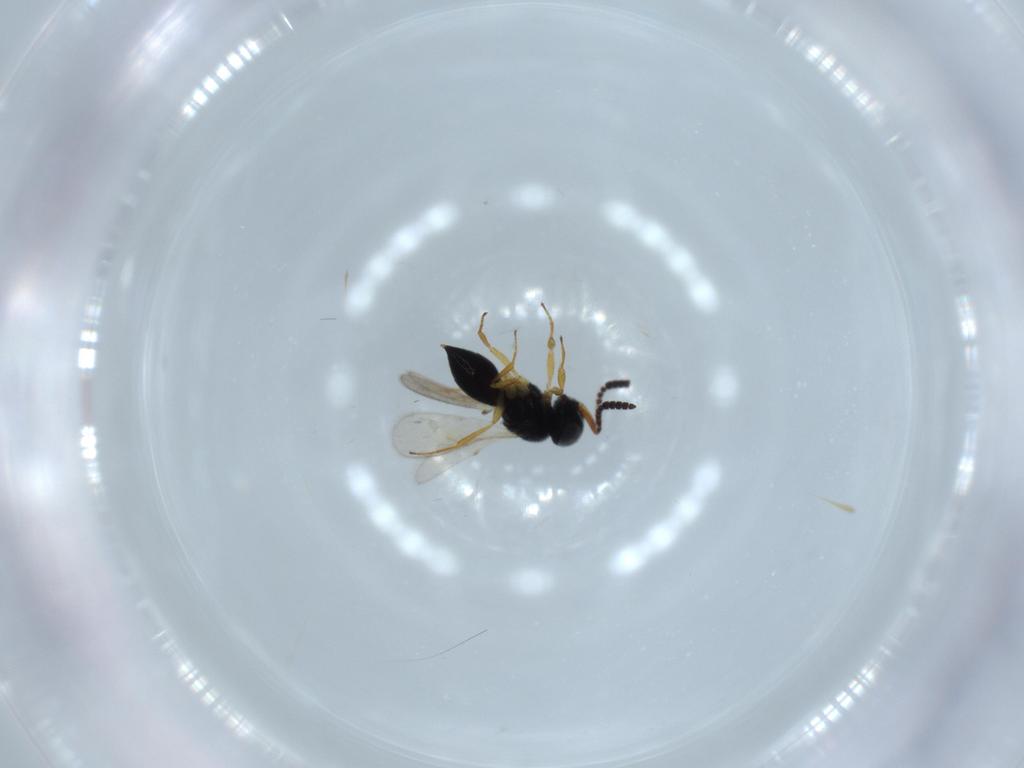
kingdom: Animalia
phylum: Arthropoda
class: Insecta
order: Hymenoptera
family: Scelionidae
